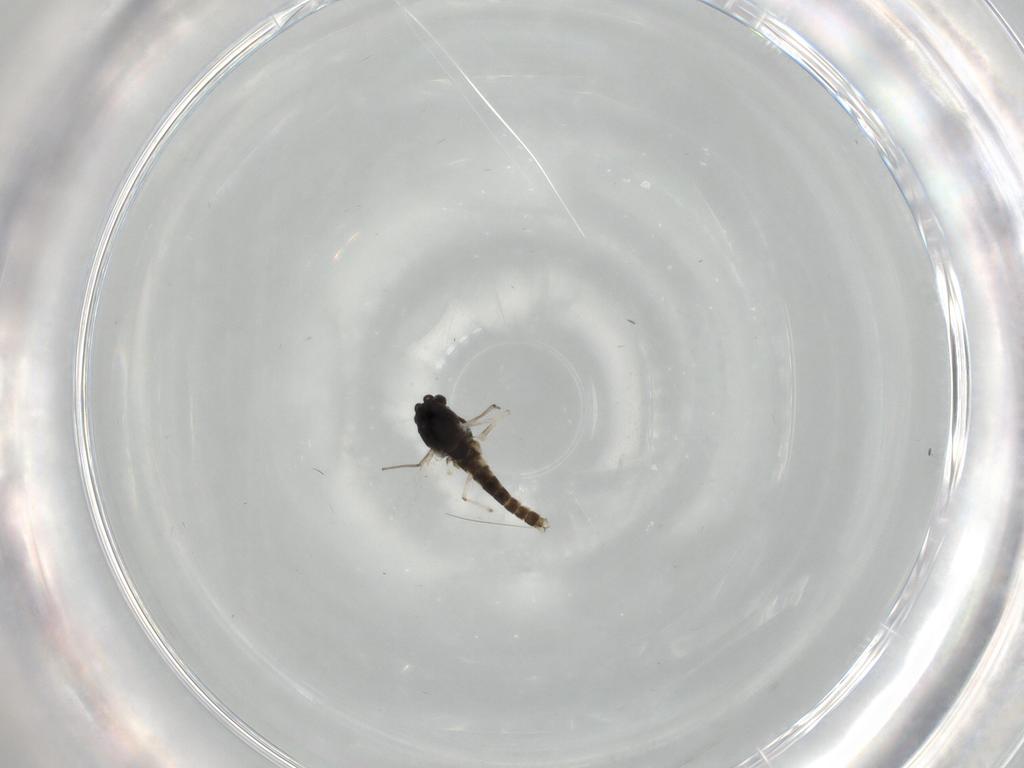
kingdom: Animalia
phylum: Arthropoda
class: Insecta
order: Diptera
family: Chironomidae
